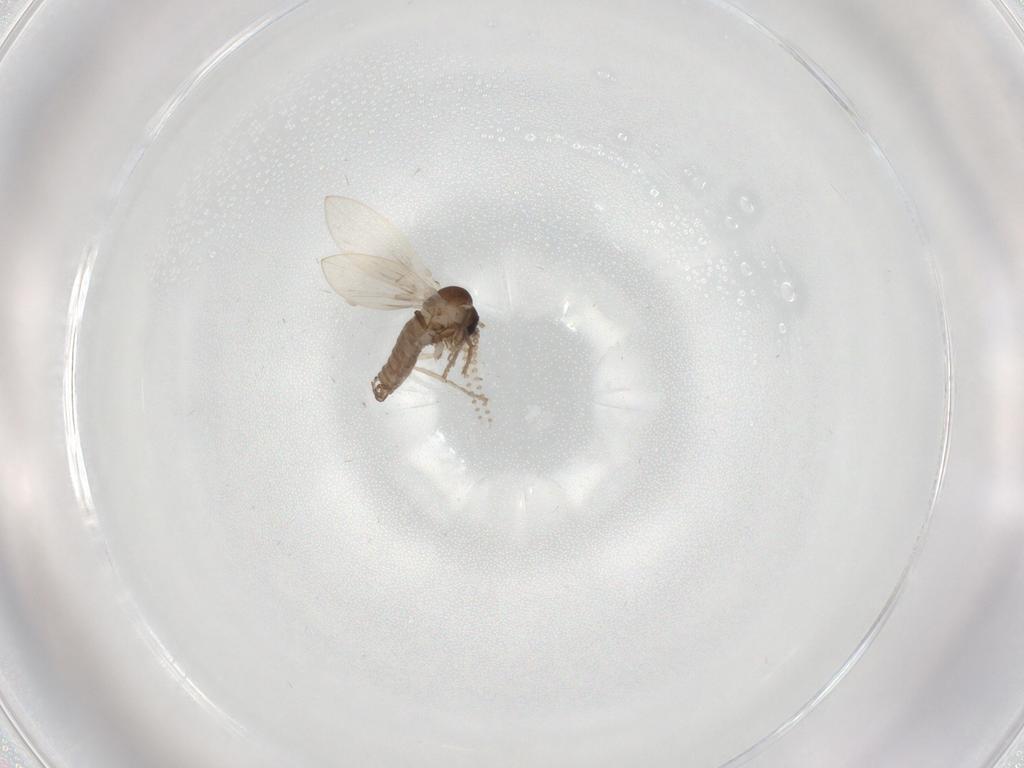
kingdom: Animalia
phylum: Arthropoda
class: Insecta
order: Diptera
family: Psychodidae
